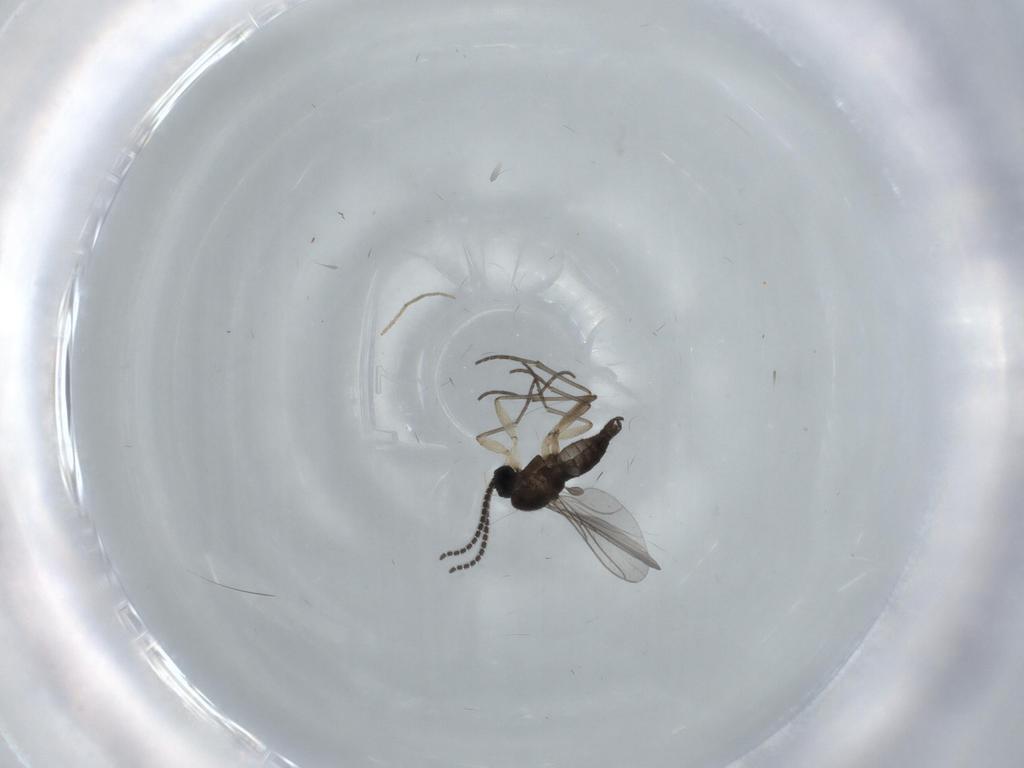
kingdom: Animalia
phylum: Arthropoda
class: Insecta
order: Diptera
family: Sciaridae
